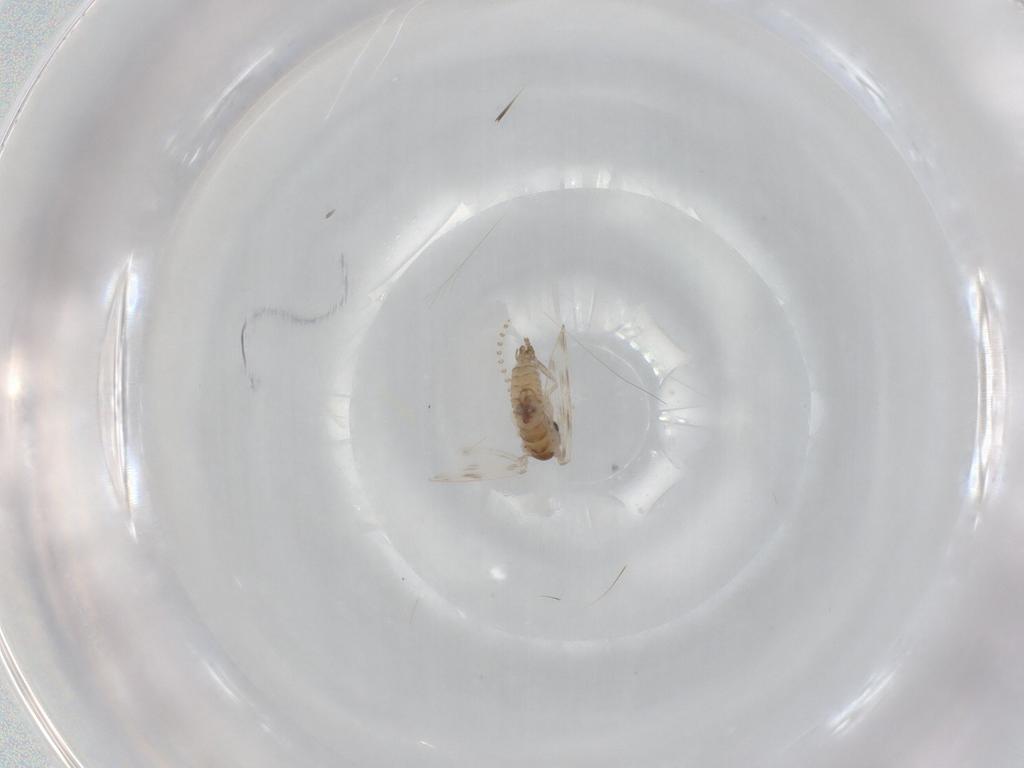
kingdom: Animalia
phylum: Arthropoda
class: Insecta
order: Diptera
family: Psychodidae
